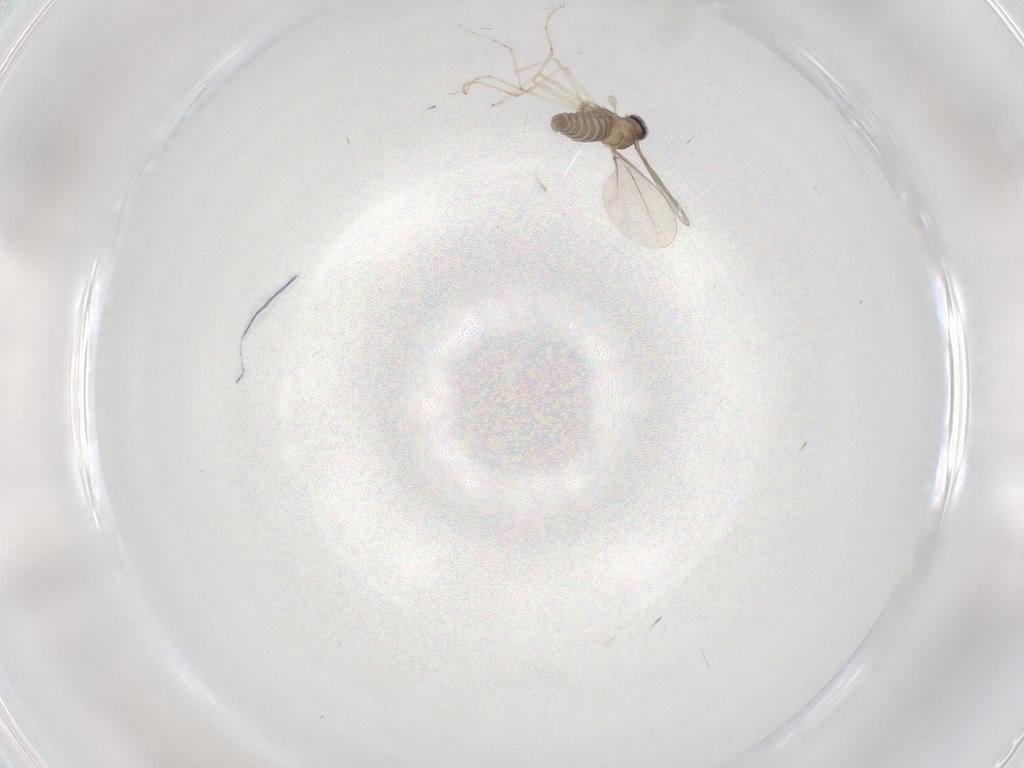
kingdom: Animalia
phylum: Arthropoda
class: Insecta
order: Diptera
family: Cecidomyiidae
